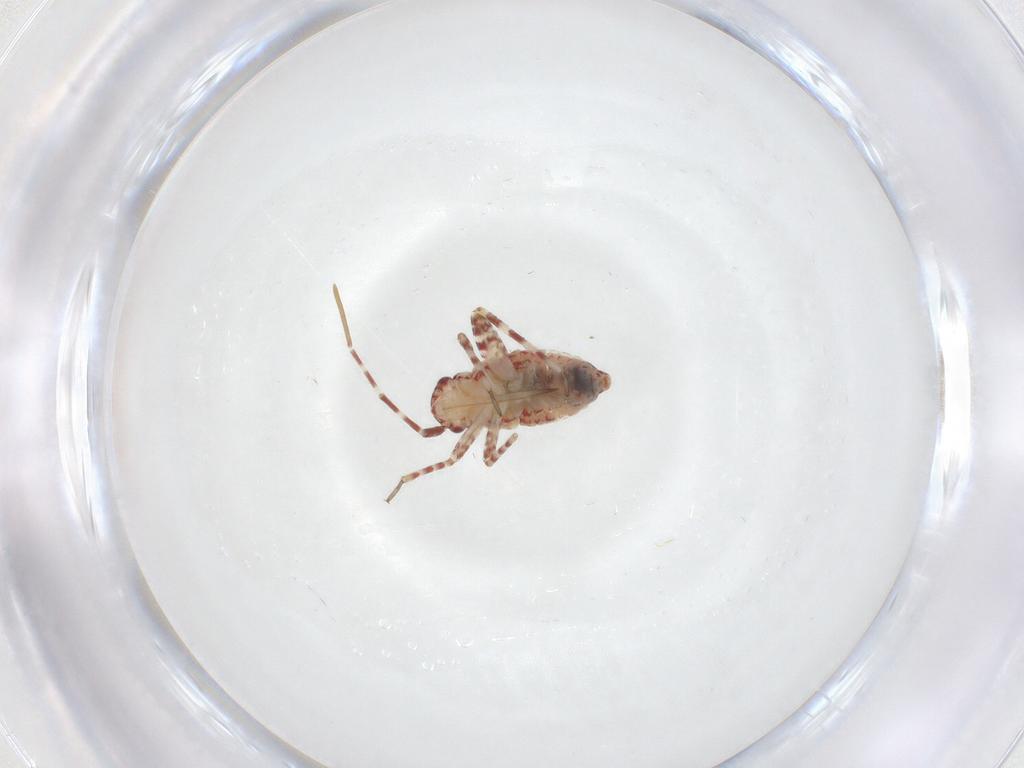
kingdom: Animalia
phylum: Arthropoda
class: Insecta
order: Hemiptera
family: Miridae
